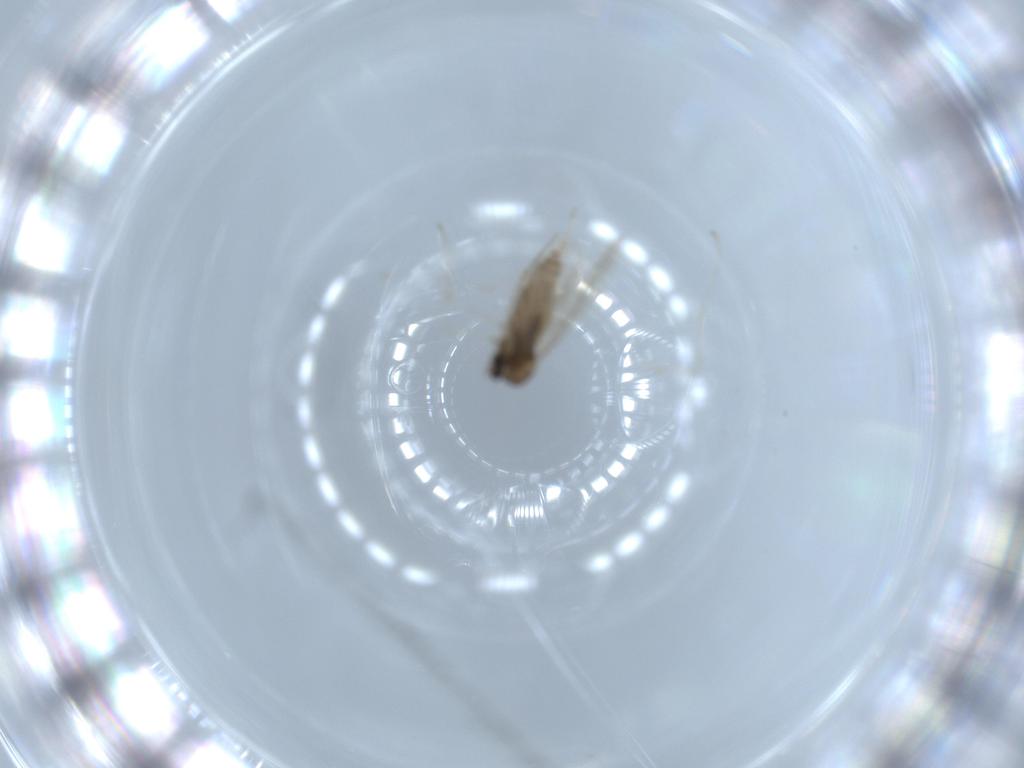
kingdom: Animalia
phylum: Arthropoda
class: Insecta
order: Diptera
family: Cecidomyiidae
